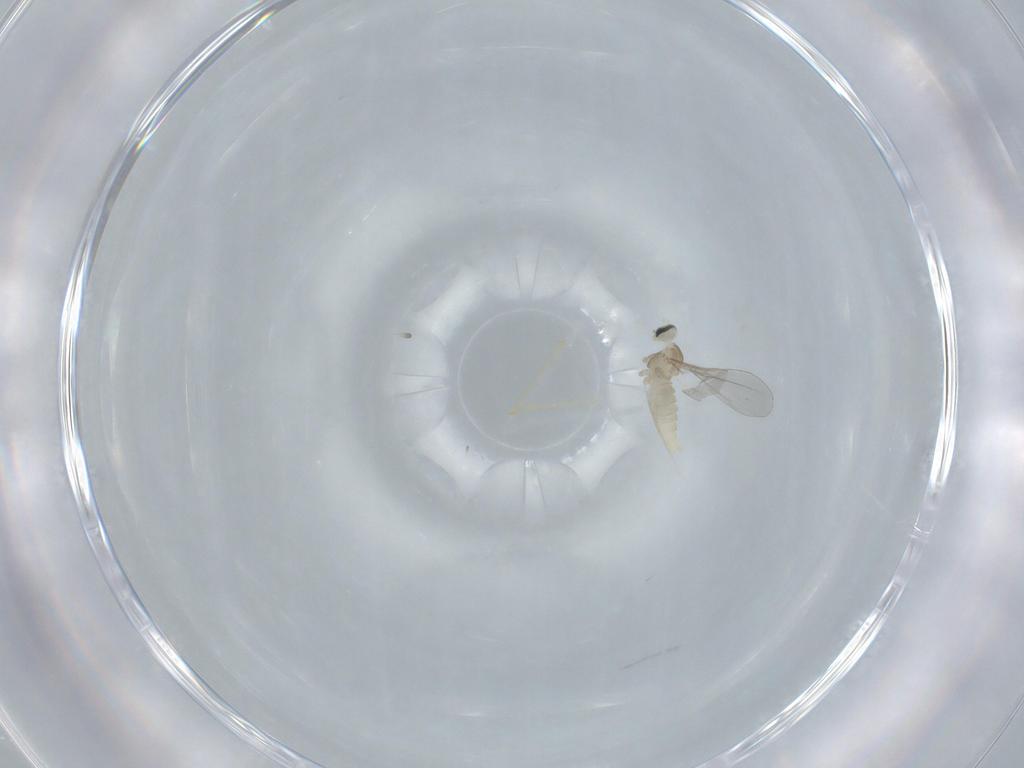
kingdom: Animalia
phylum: Arthropoda
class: Insecta
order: Diptera
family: Cecidomyiidae
